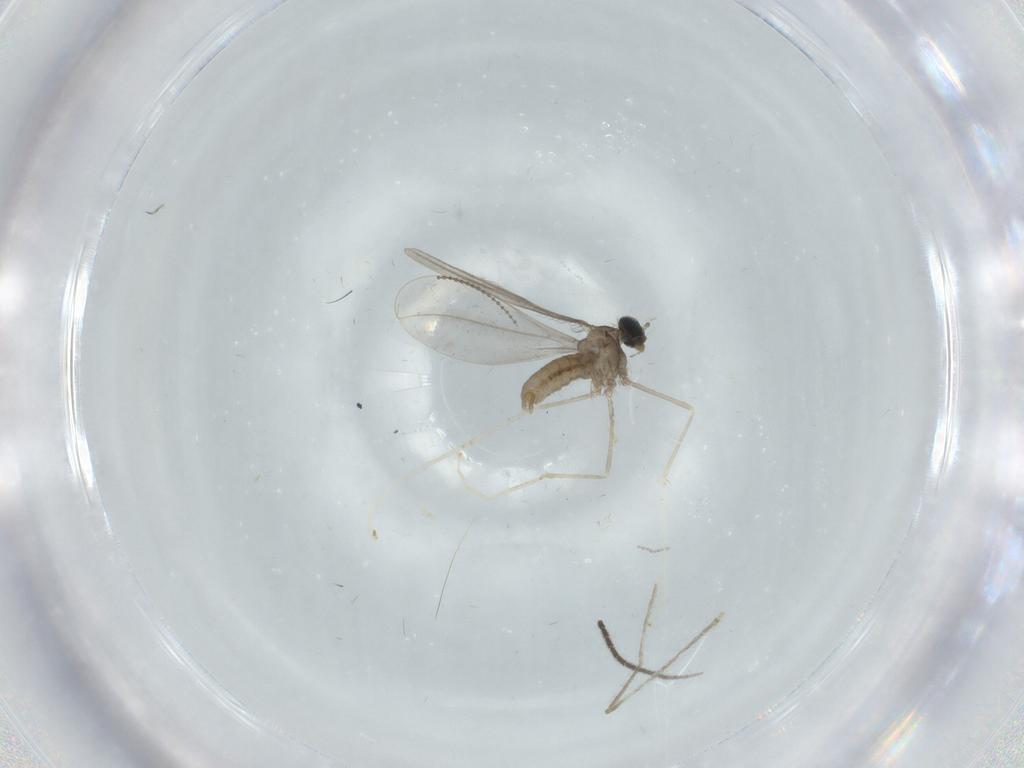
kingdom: Animalia
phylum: Arthropoda
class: Insecta
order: Diptera
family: Cecidomyiidae
